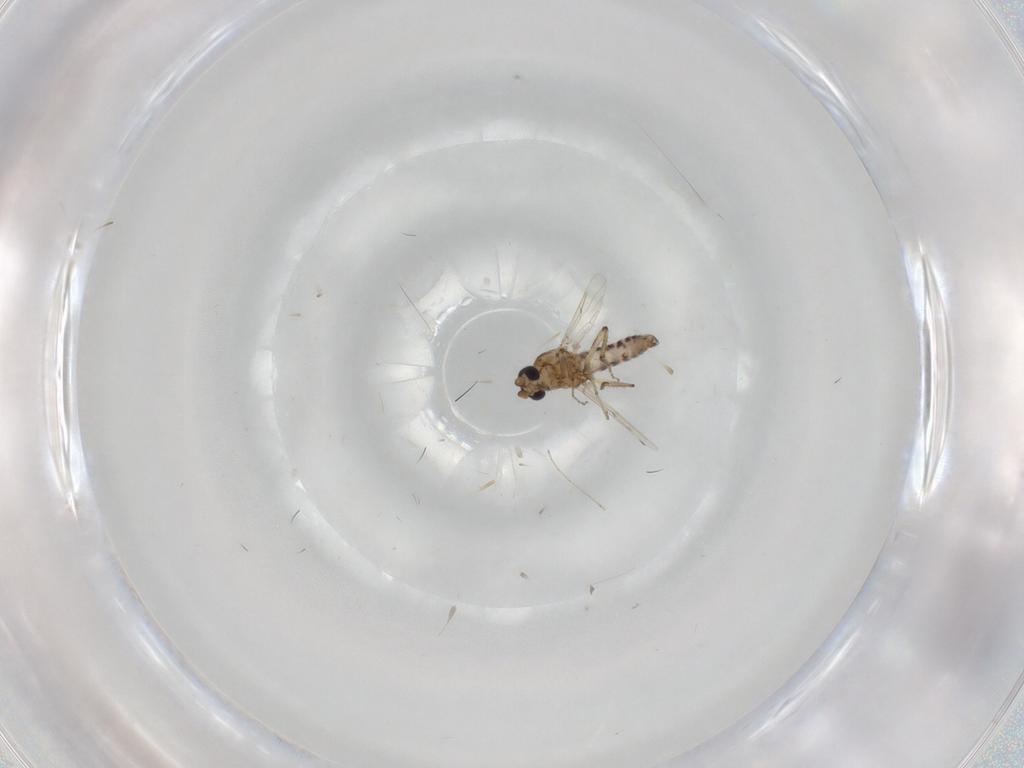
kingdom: Animalia
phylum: Arthropoda
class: Insecta
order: Diptera
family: Ceratopogonidae
